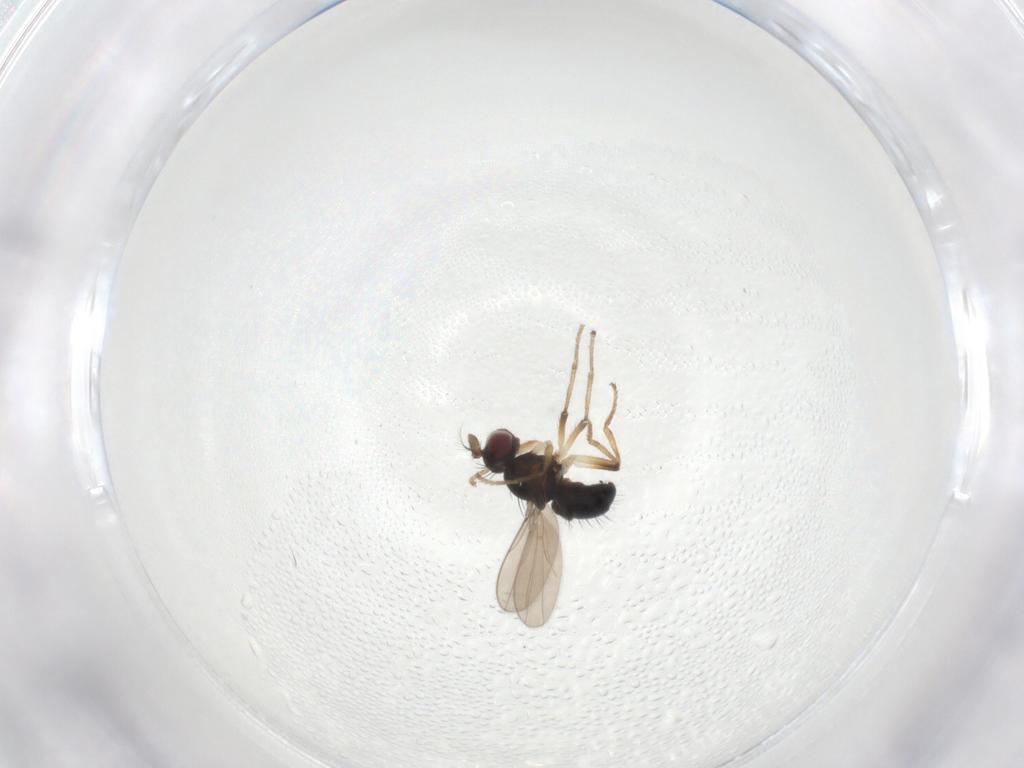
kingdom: Animalia
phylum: Arthropoda
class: Insecta
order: Diptera
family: Ephydridae
